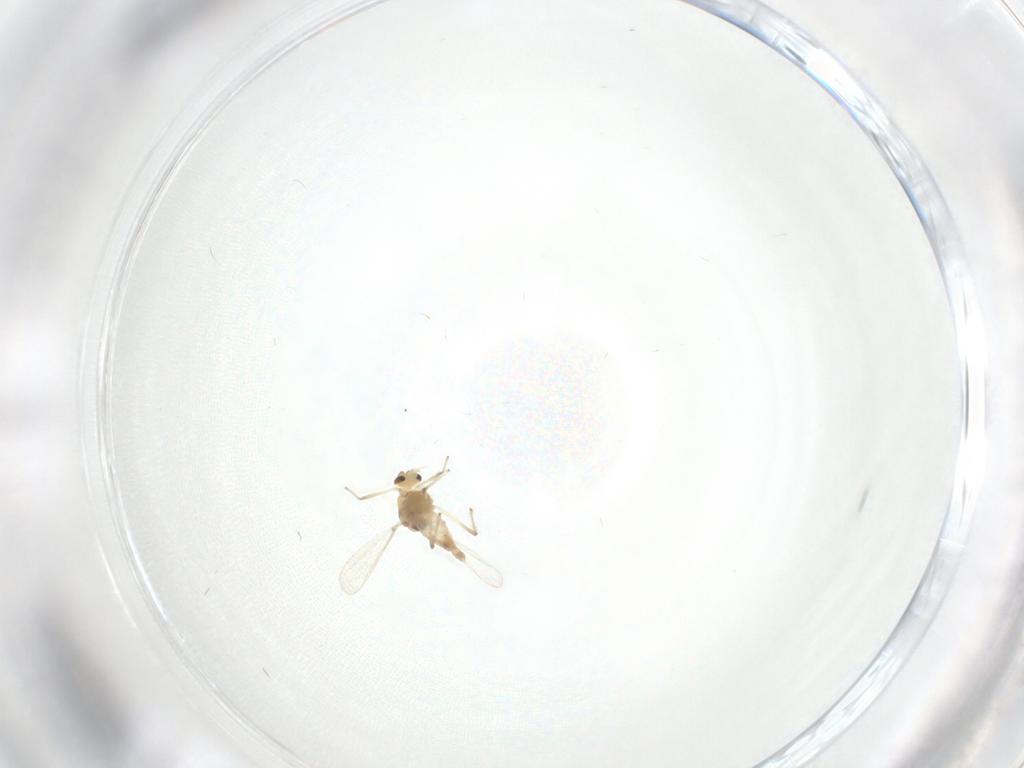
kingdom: Animalia
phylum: Arthropoda
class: Insecta
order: Diptera
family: Chironomidae
